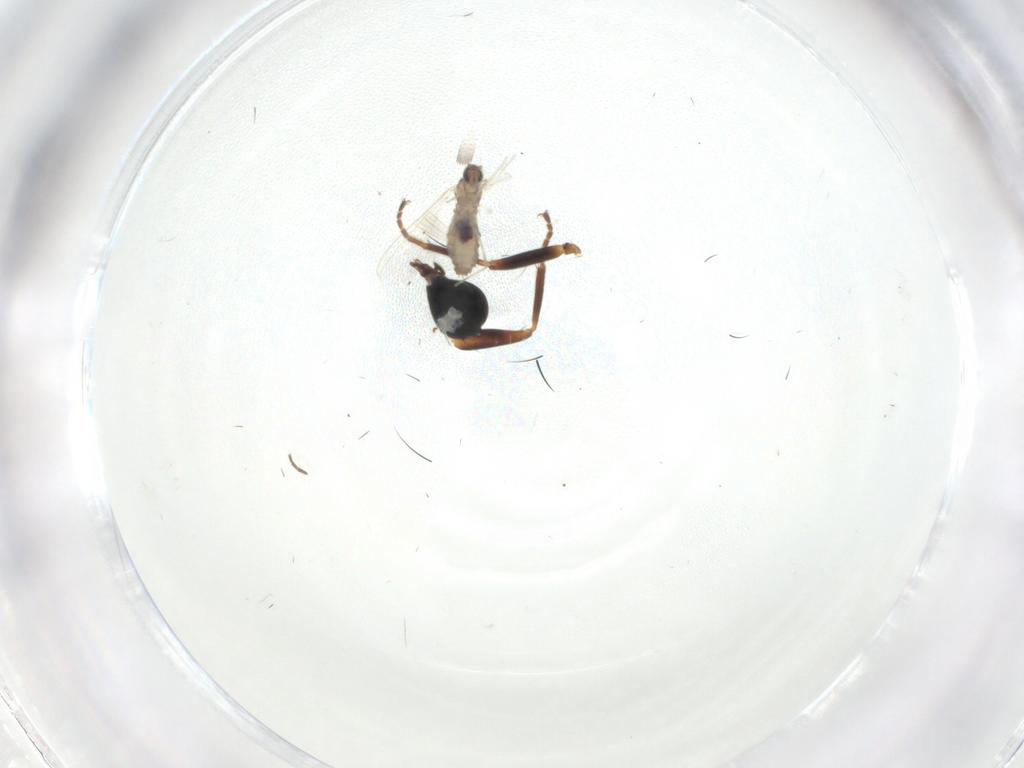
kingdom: Animalia
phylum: Arthropoda
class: Insecta
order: Diptera
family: Cecidomyiidae
